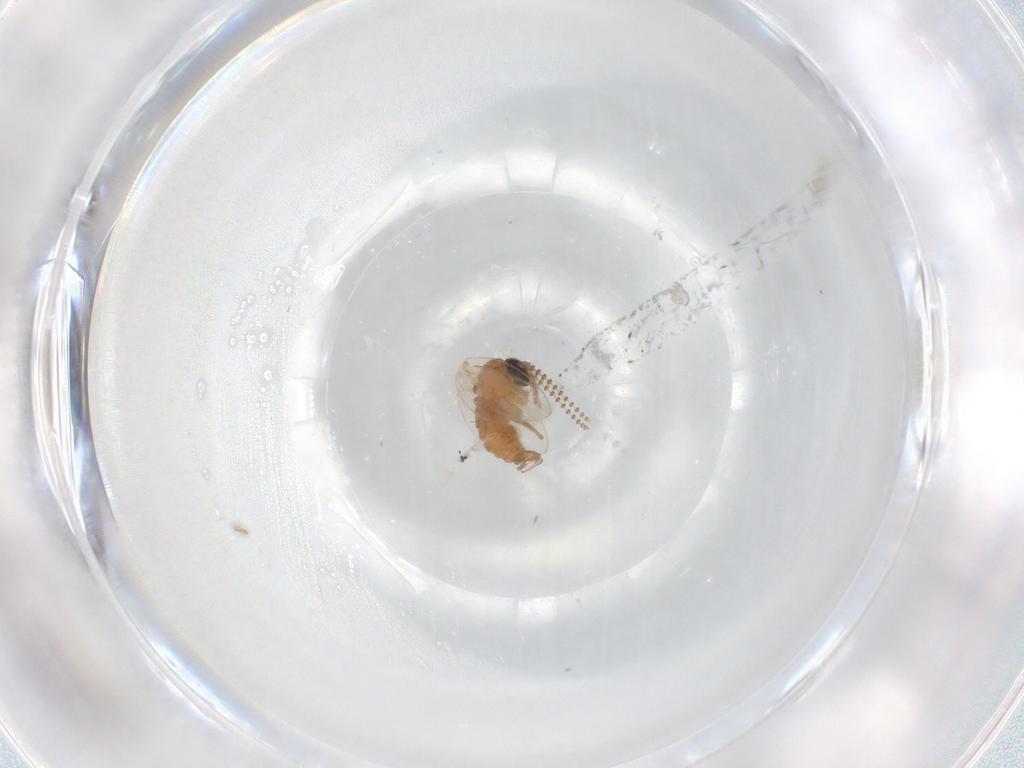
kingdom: Animalia
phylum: Arthropoda
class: Insecta
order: Diptera
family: Psychodidae
